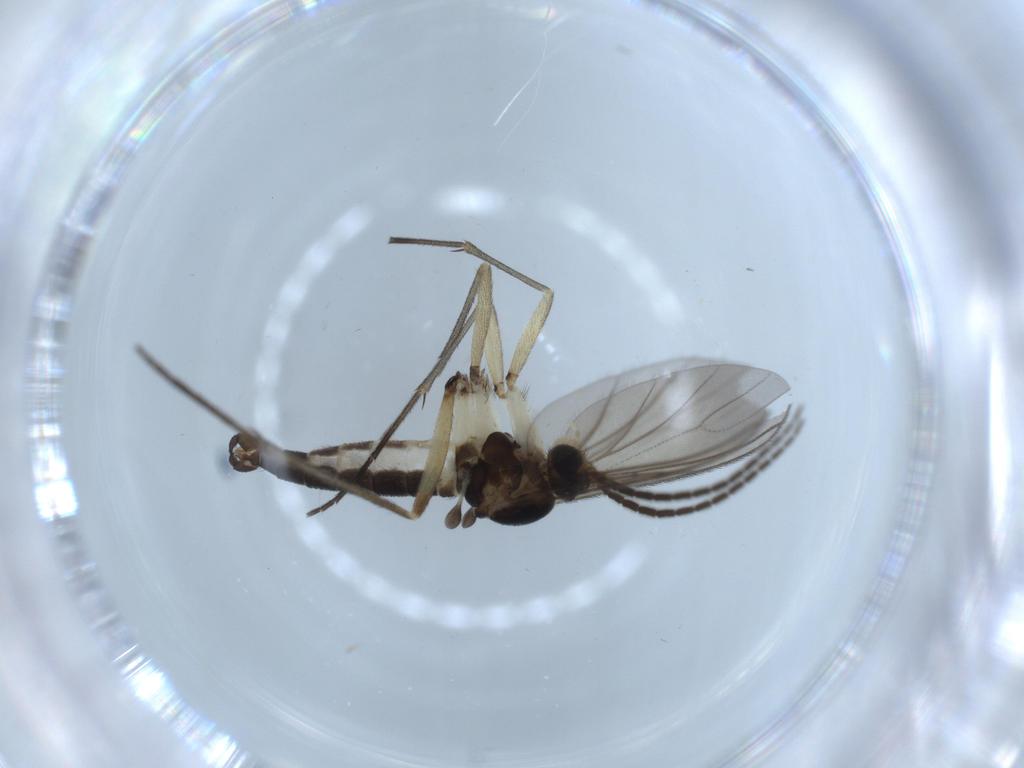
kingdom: Animalia
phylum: Arthropoda
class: Insecta
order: Diptera
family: Sciaridae
